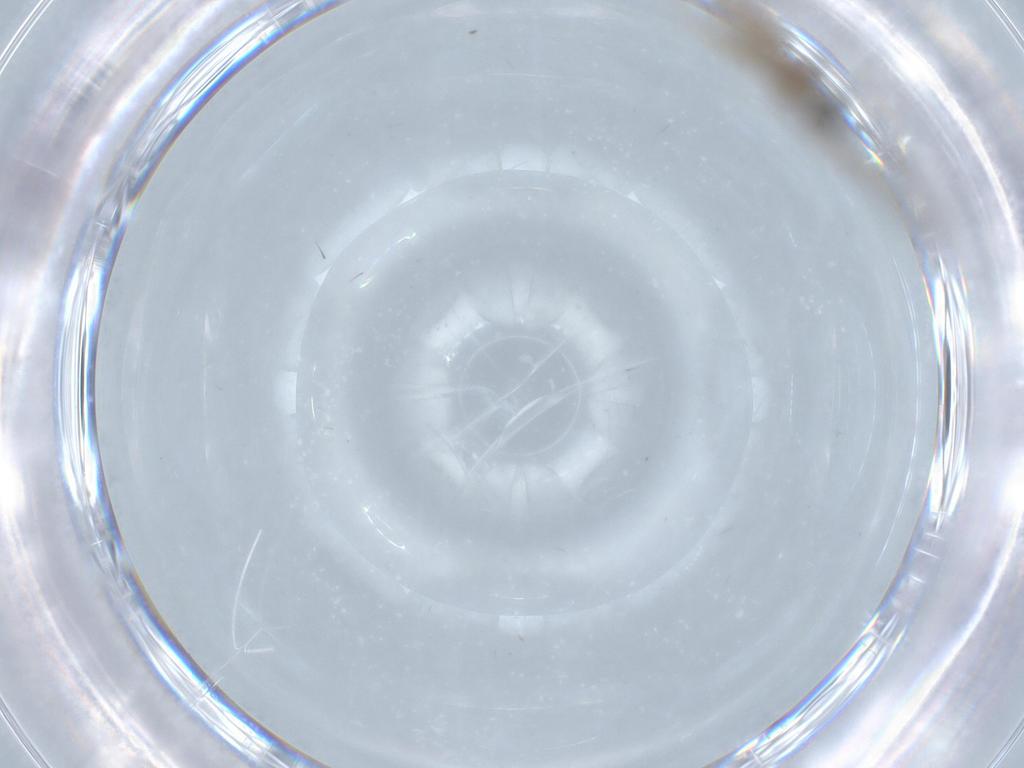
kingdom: Animalia
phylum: Arthropoda
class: Insecta
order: Diptera
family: Cecidomyiidae
